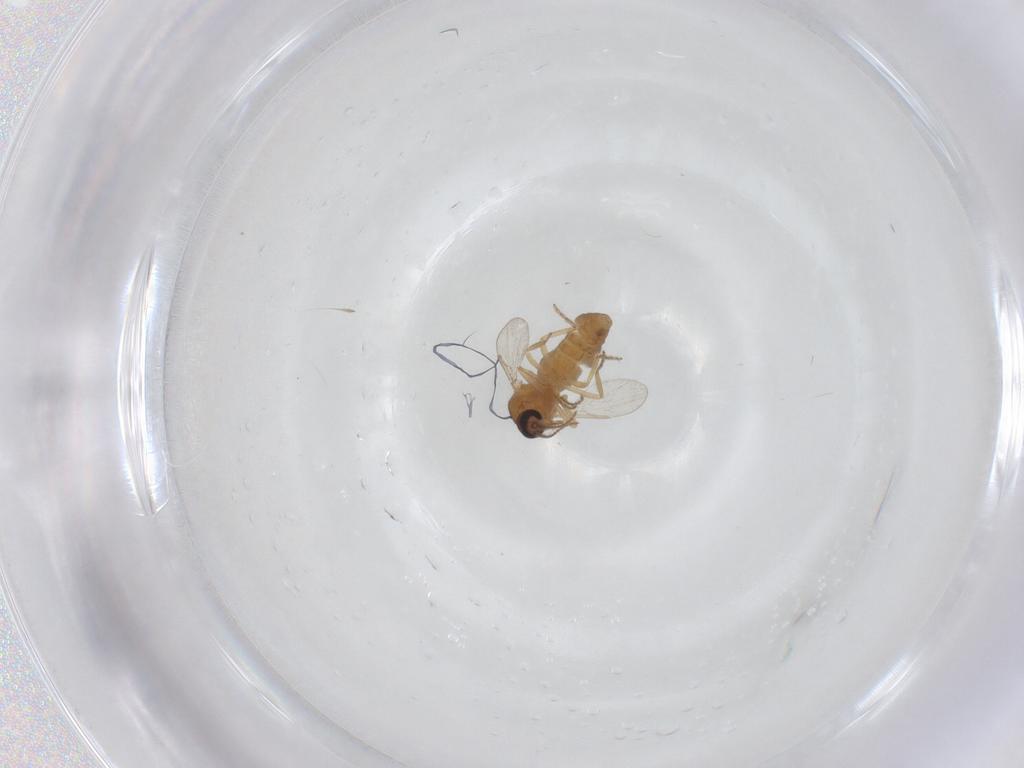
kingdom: Animalia
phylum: Arthropoda
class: Insecta
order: Diptera
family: Ceratopogonidae
